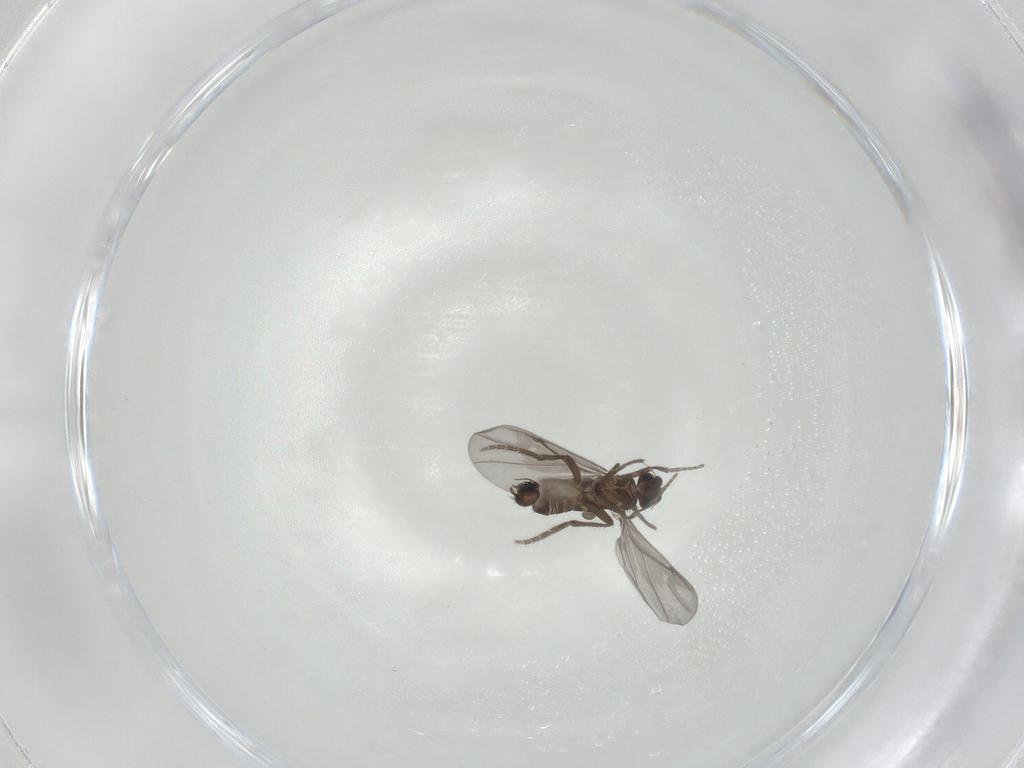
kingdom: Animalia
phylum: Arthropoda
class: Insecta
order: Diptera
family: Phoridae
